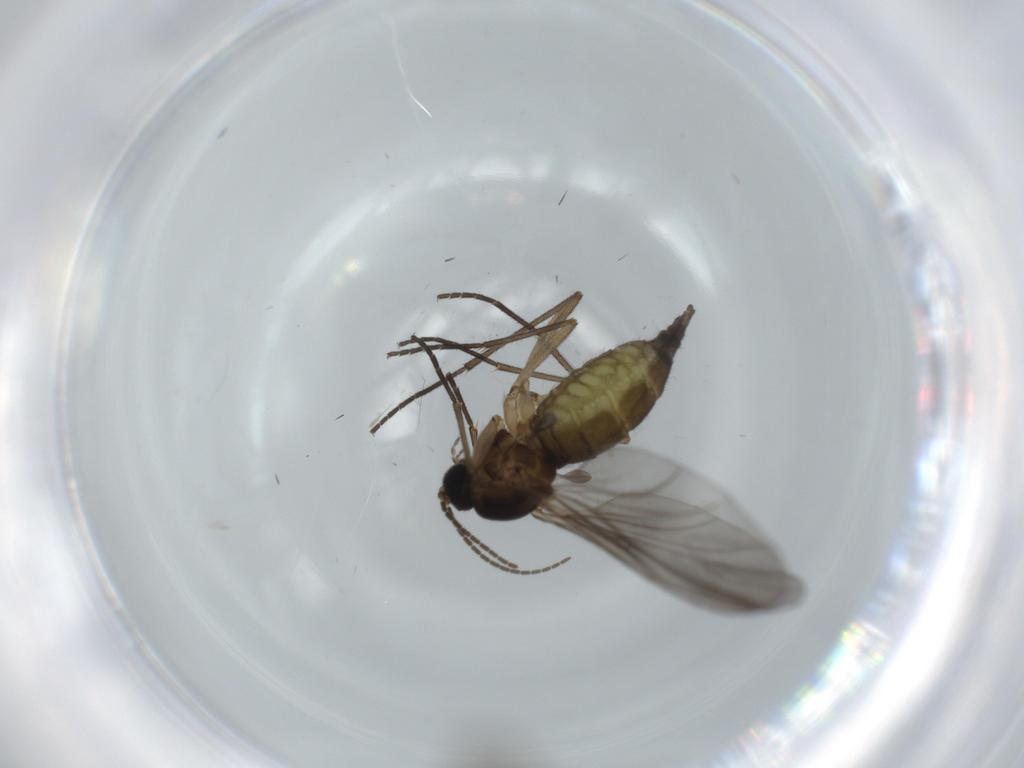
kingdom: Animalia
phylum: Arthropoda
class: Insecta
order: Diptera
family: Sciaridae
